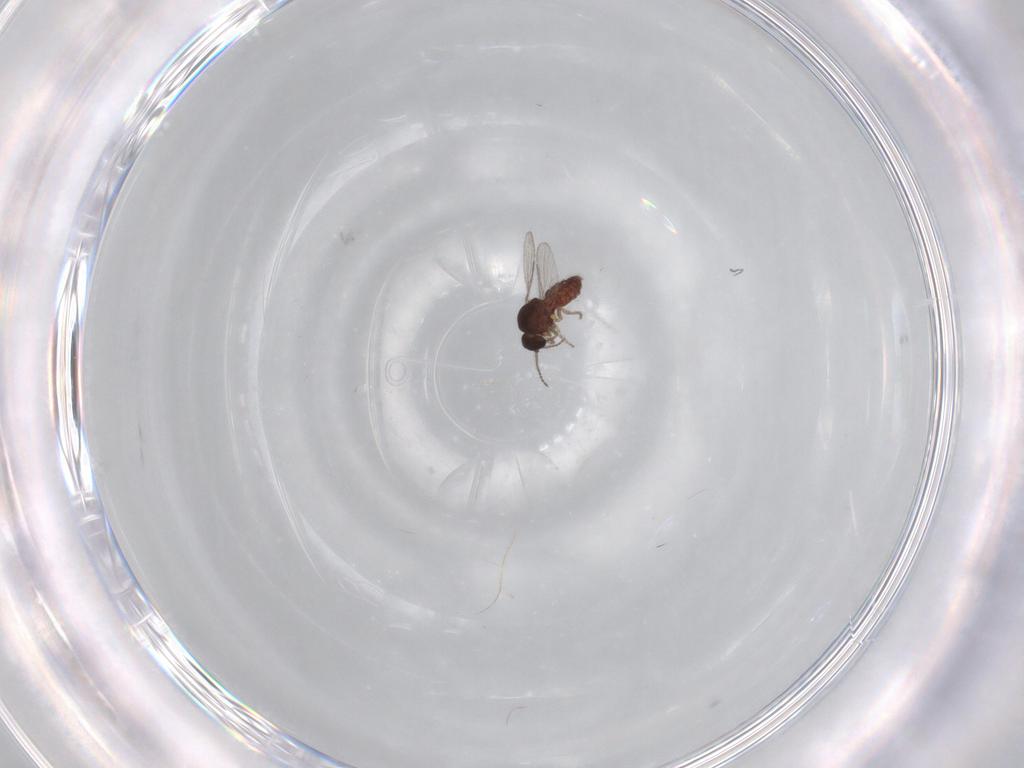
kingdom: Animalia
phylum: Arthropoda
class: Insecta
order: Diptera
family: Ceratopogonidae
